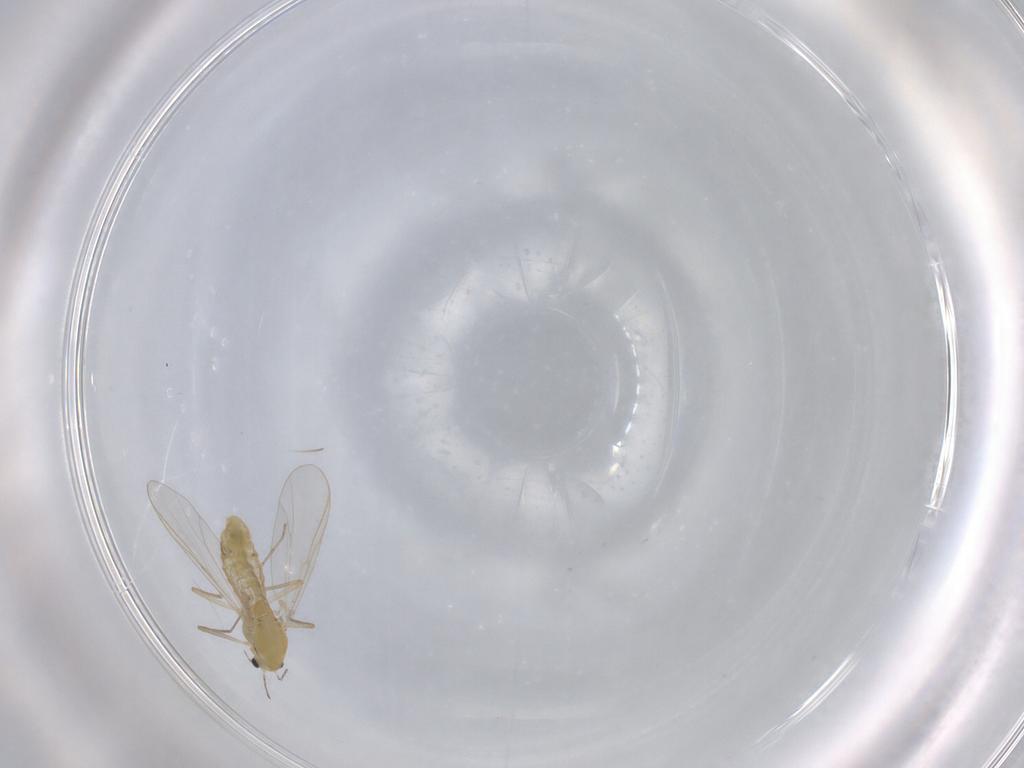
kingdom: Animalia
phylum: Arthropoda
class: Insecta
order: Diptera
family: Chironomidae
